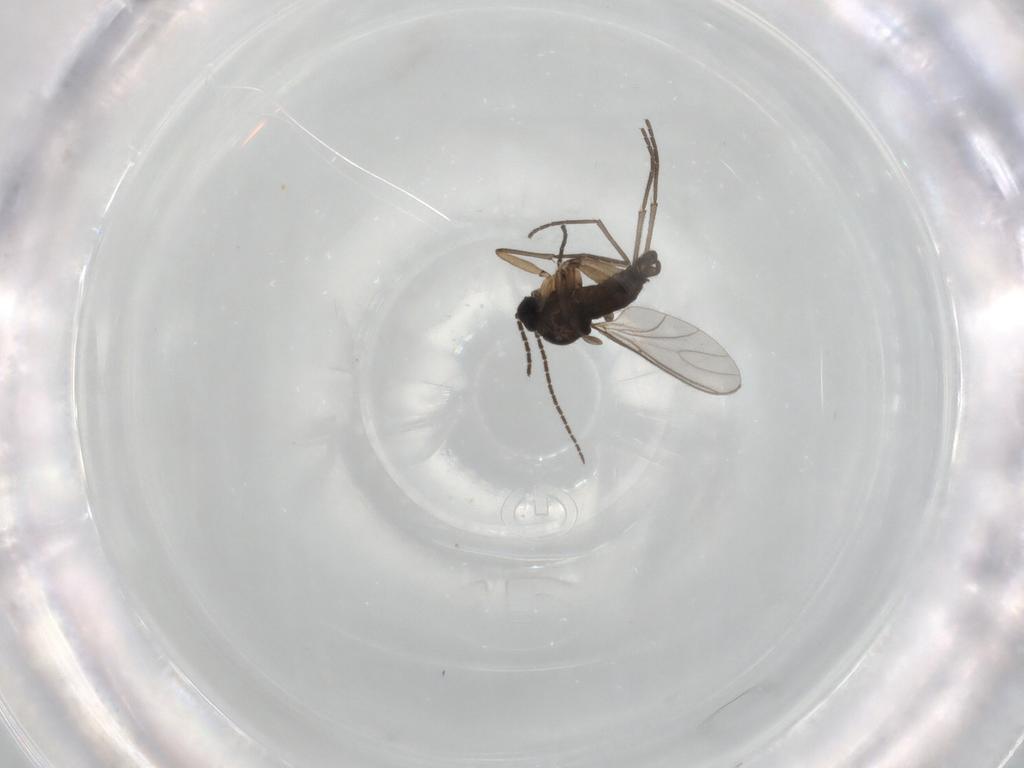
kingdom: Animalia
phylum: Arthropoda
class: Insecta
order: Diptera
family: Sciaridae
